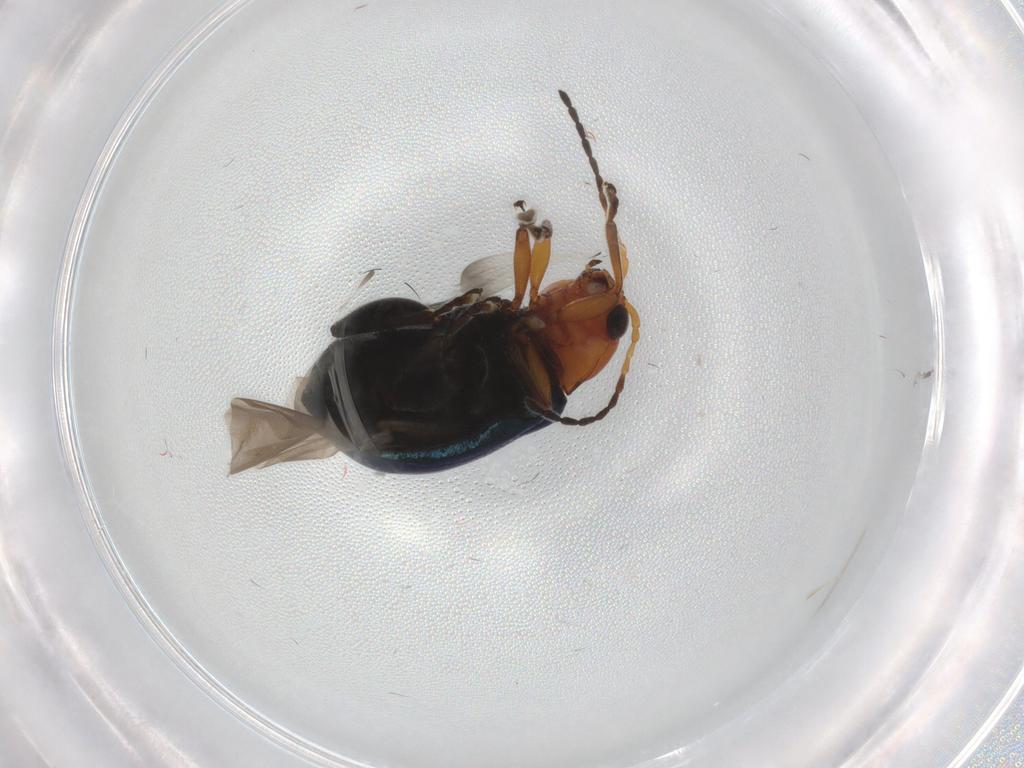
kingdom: Animalia
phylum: Arthropoda
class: Insecta
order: Coleoptera
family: Chrysomelidae
